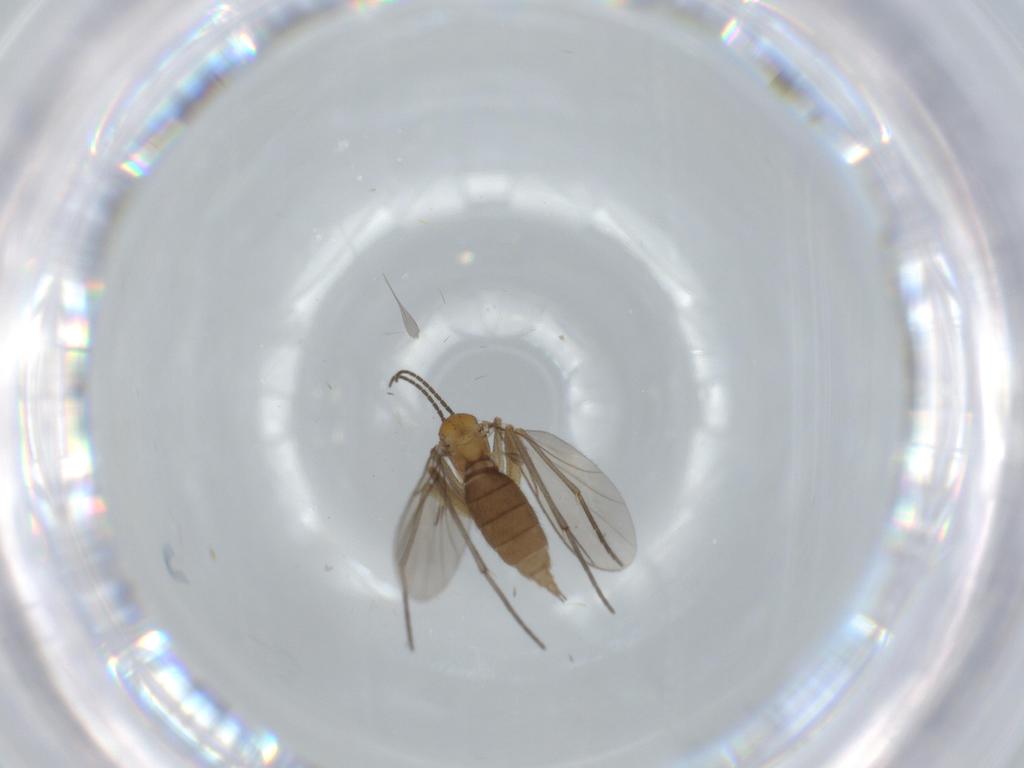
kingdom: Animalia
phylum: Arthropoda
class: Insecta
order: Diptera
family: Sciaridae
